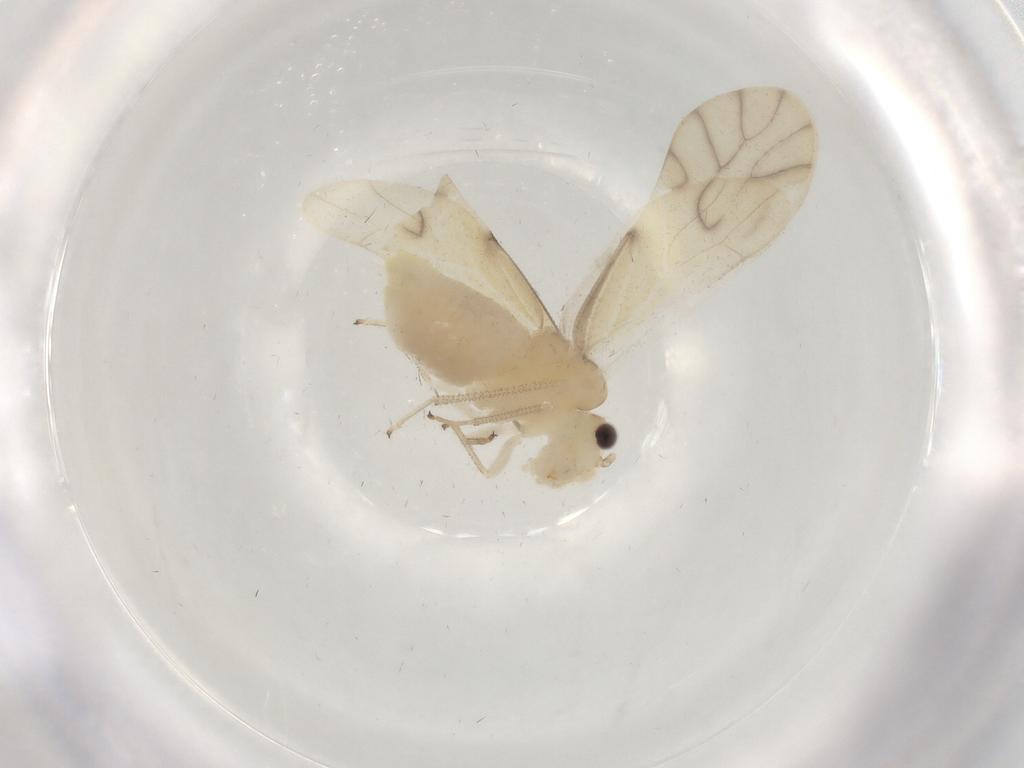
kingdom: Animalia
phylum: Arthropoda
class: Insecta
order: Psocodea
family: Caeciliusidae
